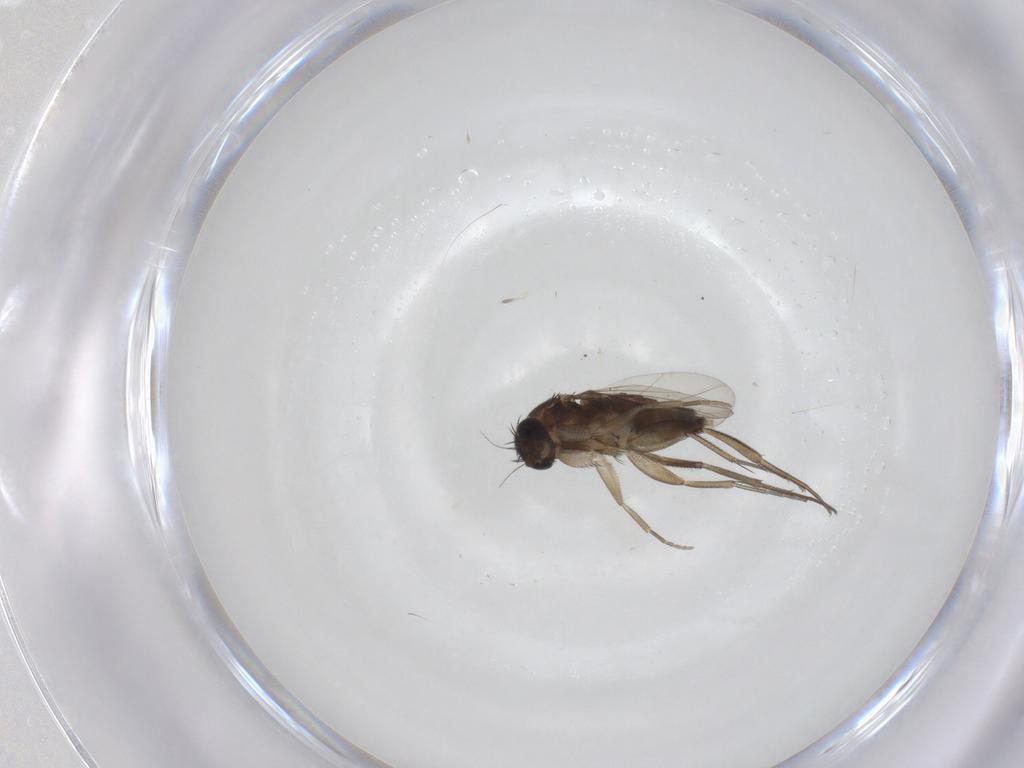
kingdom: Animalia
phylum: Arthropoda
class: Insecta
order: Diptera
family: Phoridae
